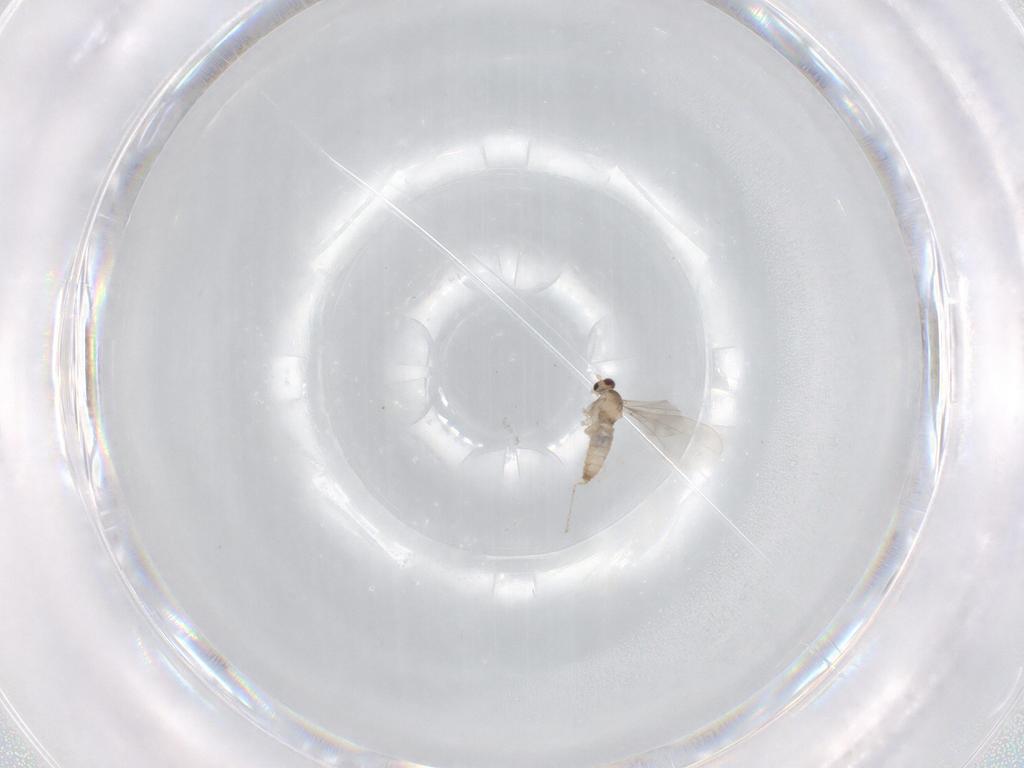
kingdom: Animalia
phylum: Arthropoda
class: Insecta
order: Diptera
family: Cecidomyiidae
